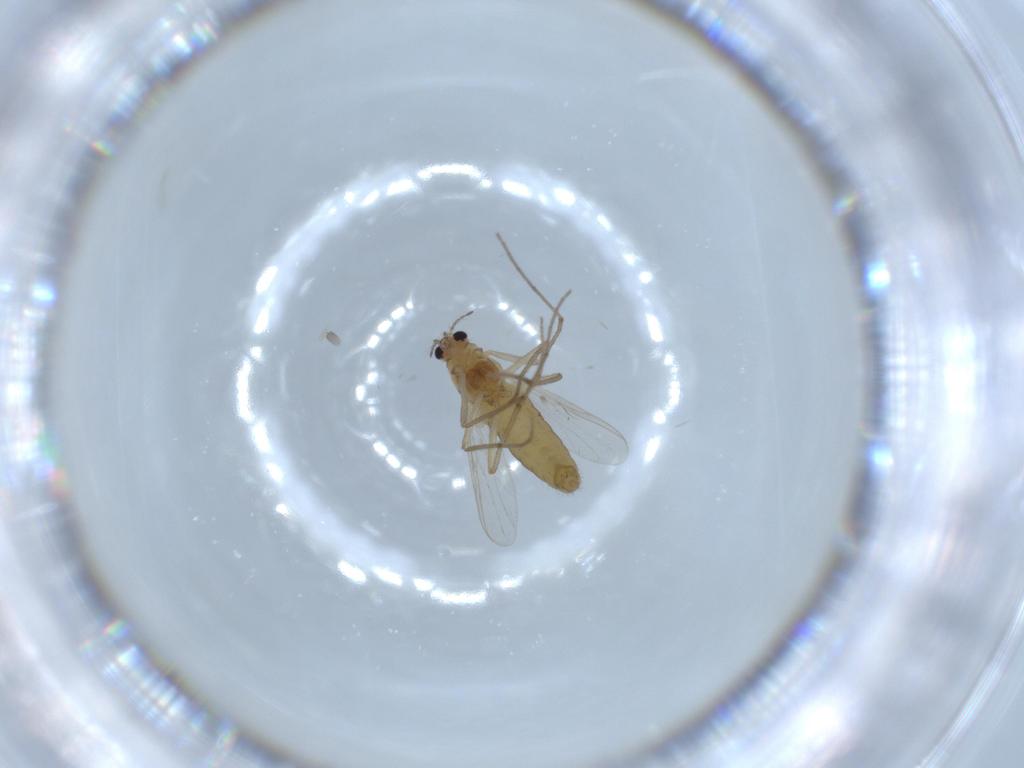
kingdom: Animalia
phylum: Arthropoda
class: Insecta
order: Diptera
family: Chironomidae
